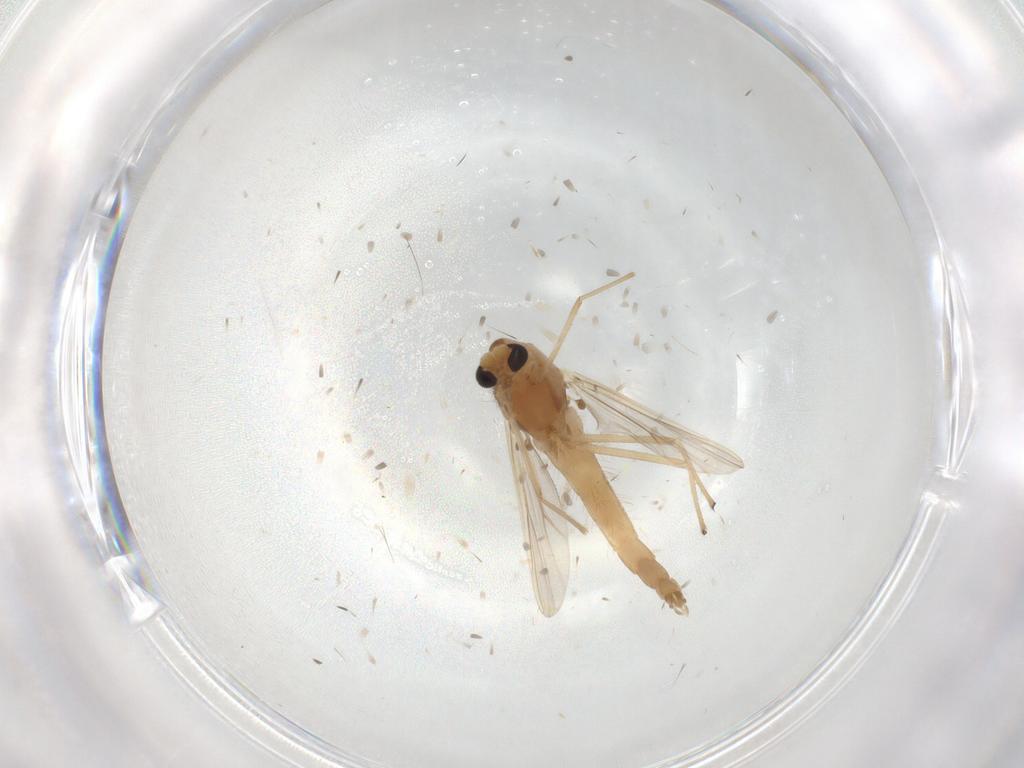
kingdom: Animalia
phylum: Arthropoda
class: Insecta
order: Diptera
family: Chironomidae
